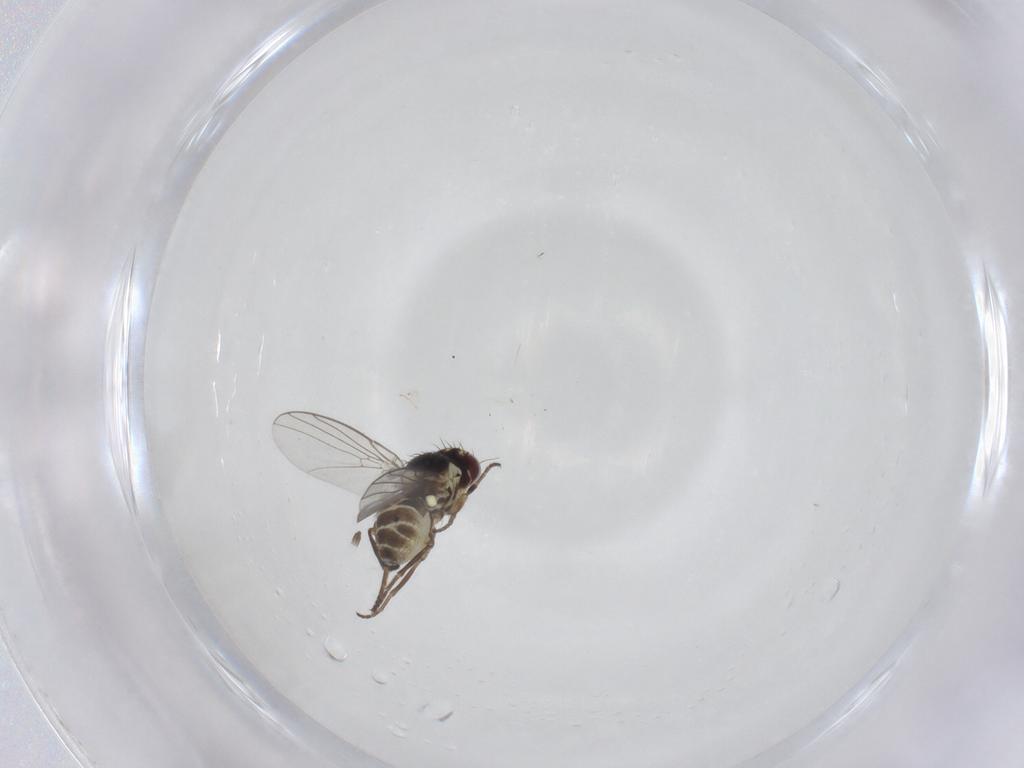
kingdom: Animalia
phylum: Arthropoda
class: Insecta
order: Diptera
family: Agromyzidae
